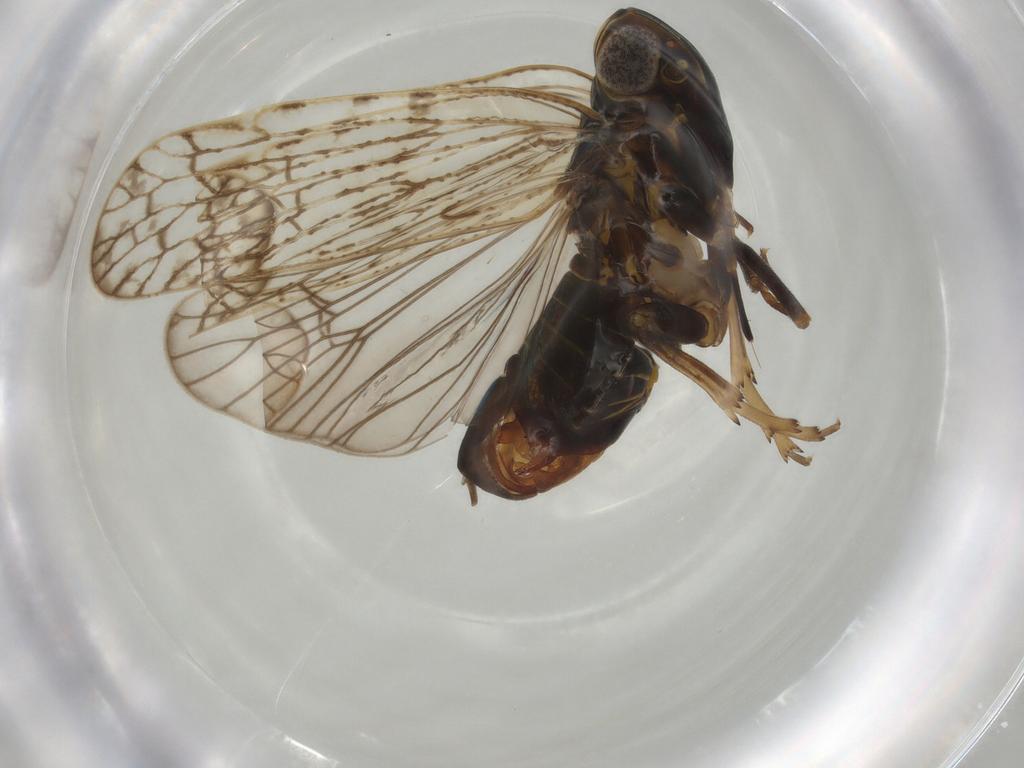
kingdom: Animalia
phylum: Arthropoda
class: Insecta
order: Hemiptera
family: Cixiidae
